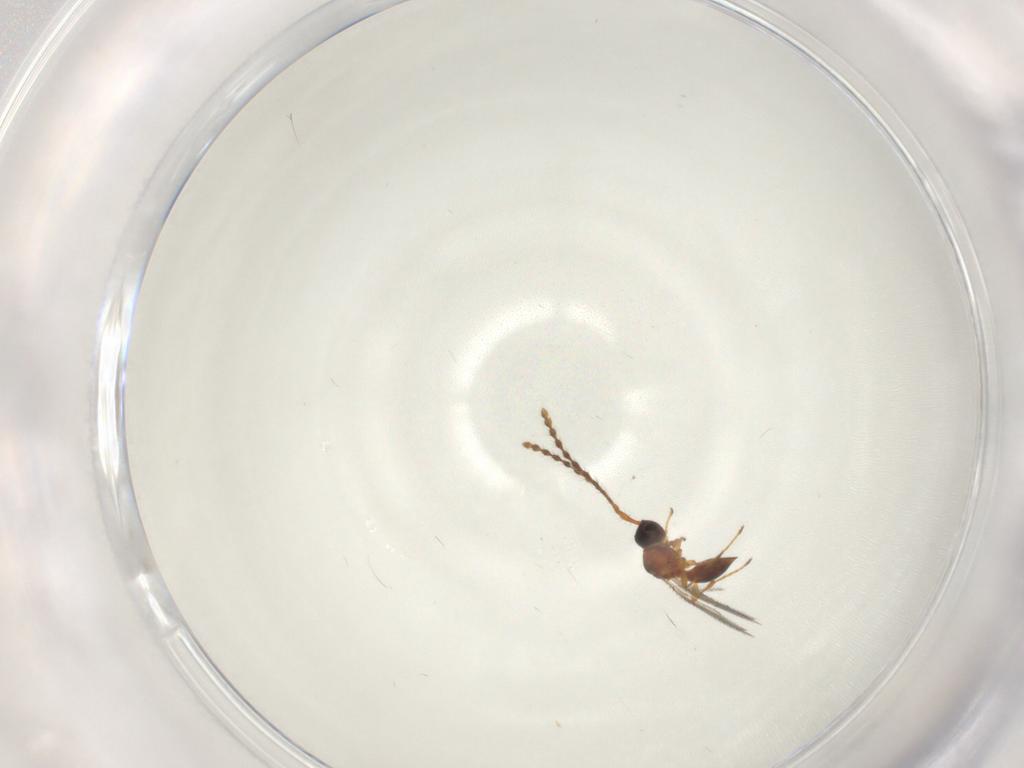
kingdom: Animalia
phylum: Arthropoda
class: Insecta
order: Hymenoptera
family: Diapriidae
